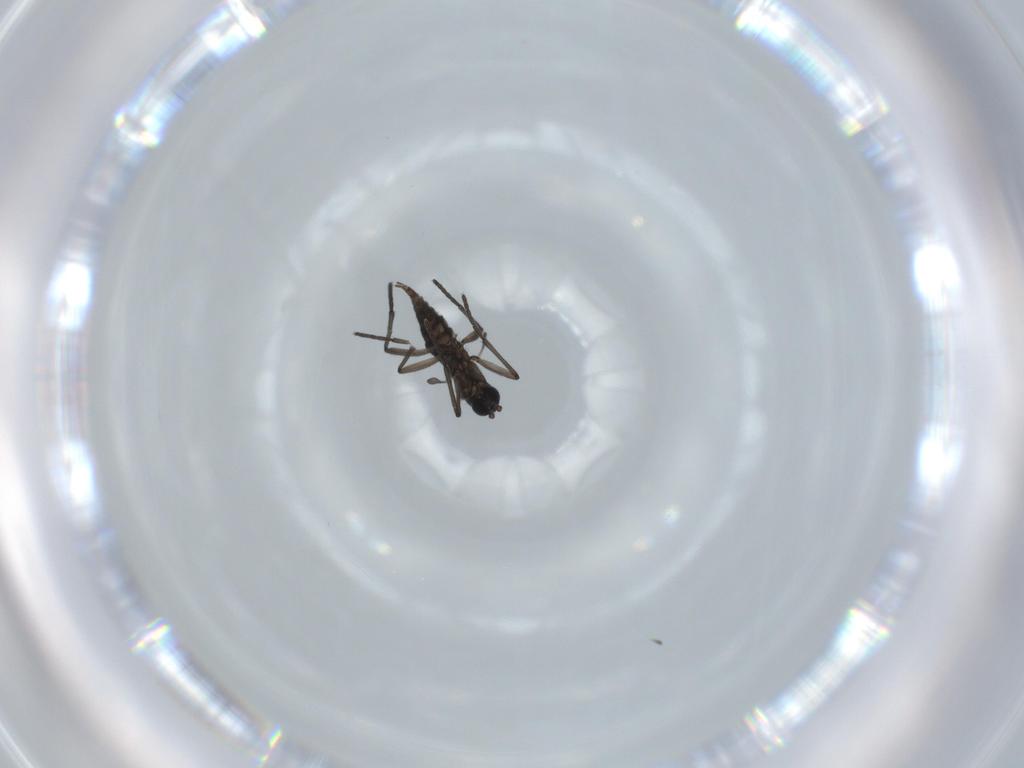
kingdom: Animalia
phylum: Arthropoda
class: Insecta
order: Diptera
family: Sciaridae
